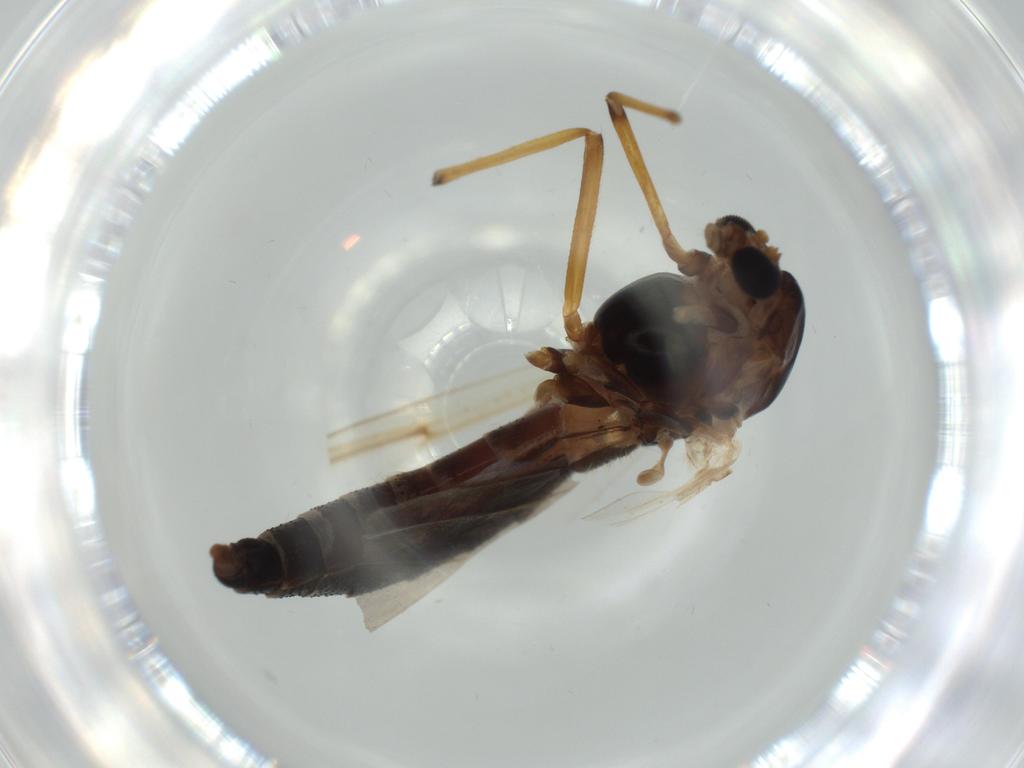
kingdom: Animalia
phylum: Arthropoda
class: Insecta
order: Diptera
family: Chironomidae
